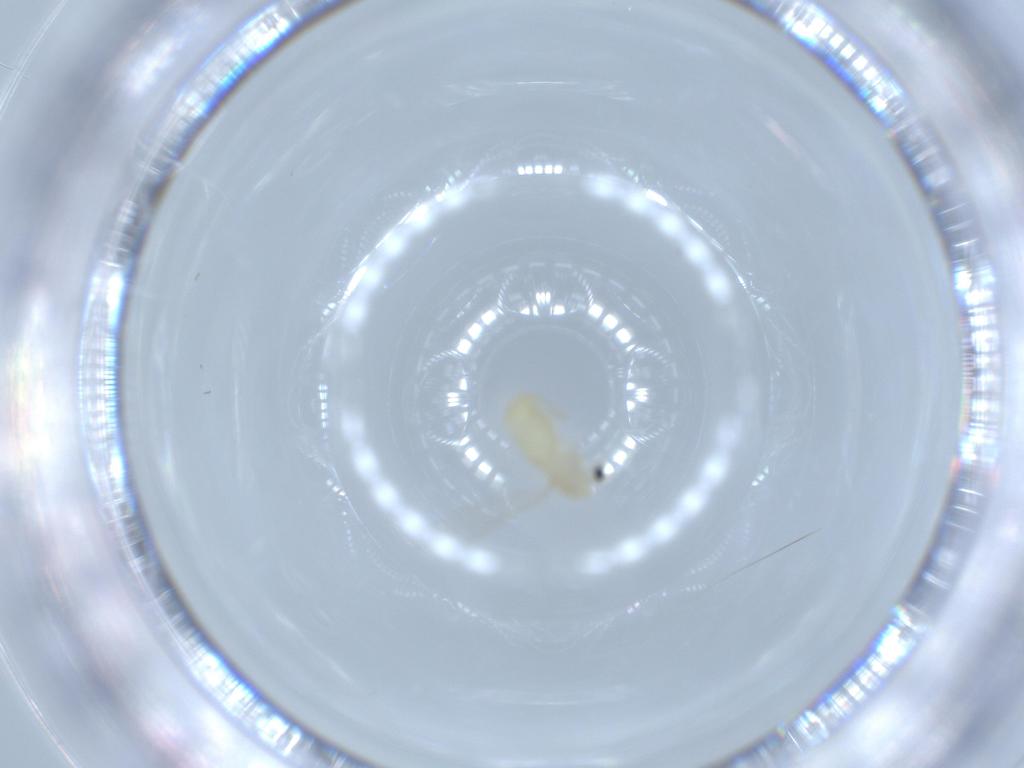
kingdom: Animalia
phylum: Arthropoda
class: Insecta
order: Diptera
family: Chironomidae
